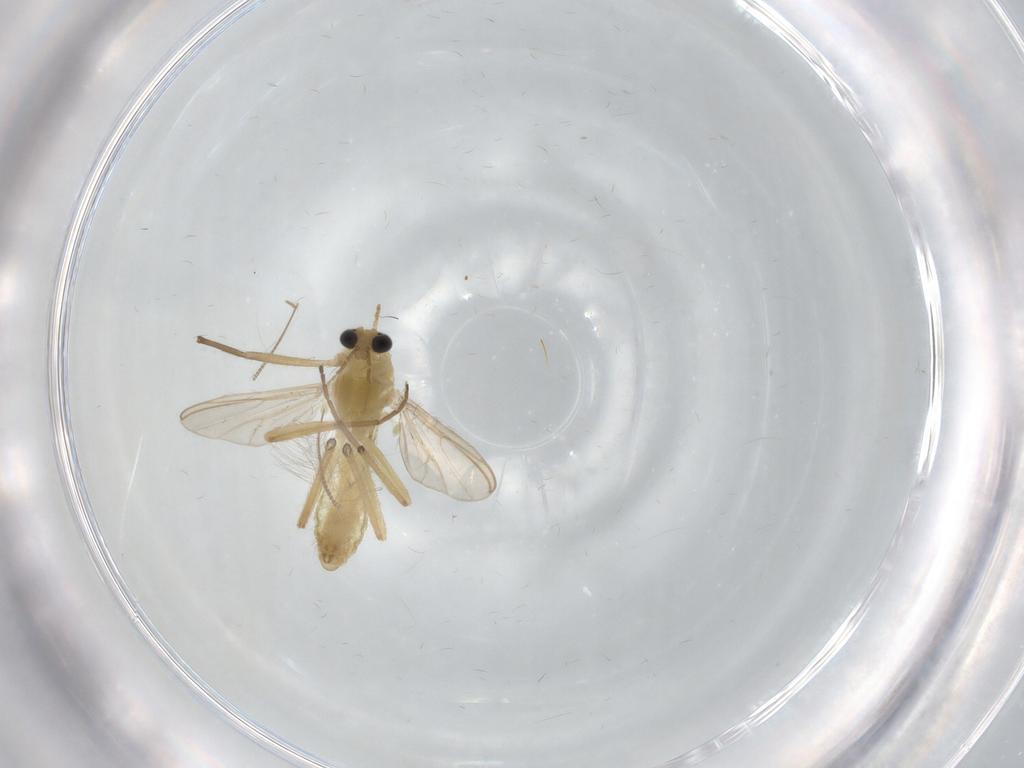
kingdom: Animalia
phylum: Arthropoda
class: Insecta
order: Diptera
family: Chironomidae
